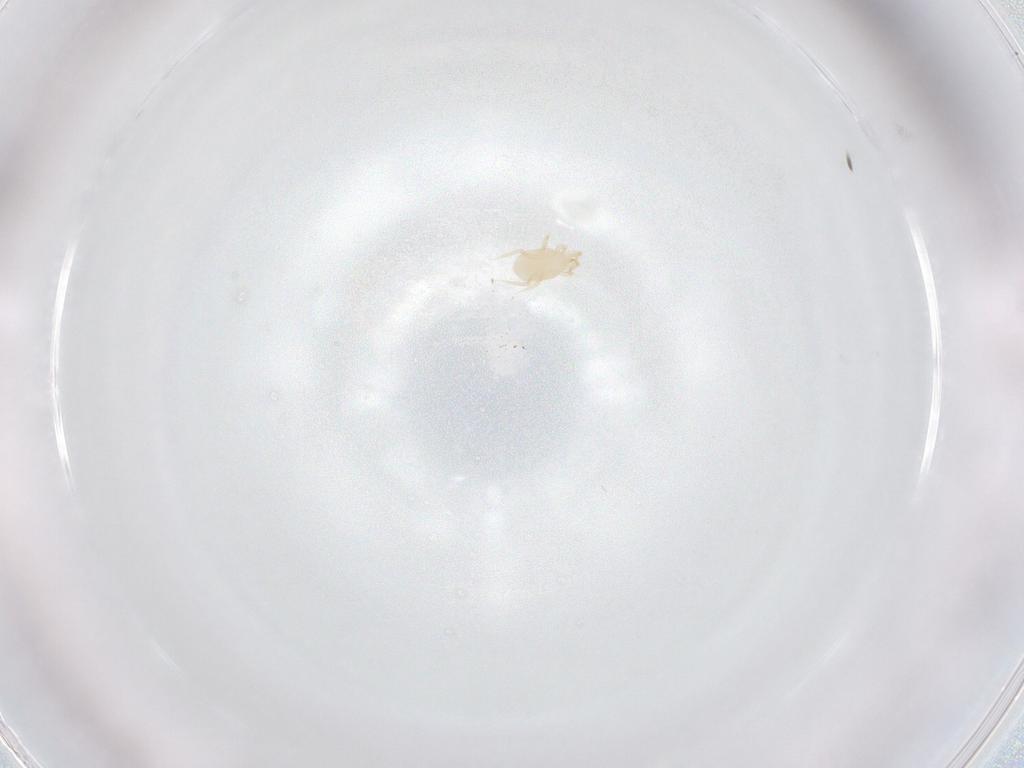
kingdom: Animalia
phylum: Arthropoda
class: Arachnida
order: Mesostigmata
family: Melicharidae
